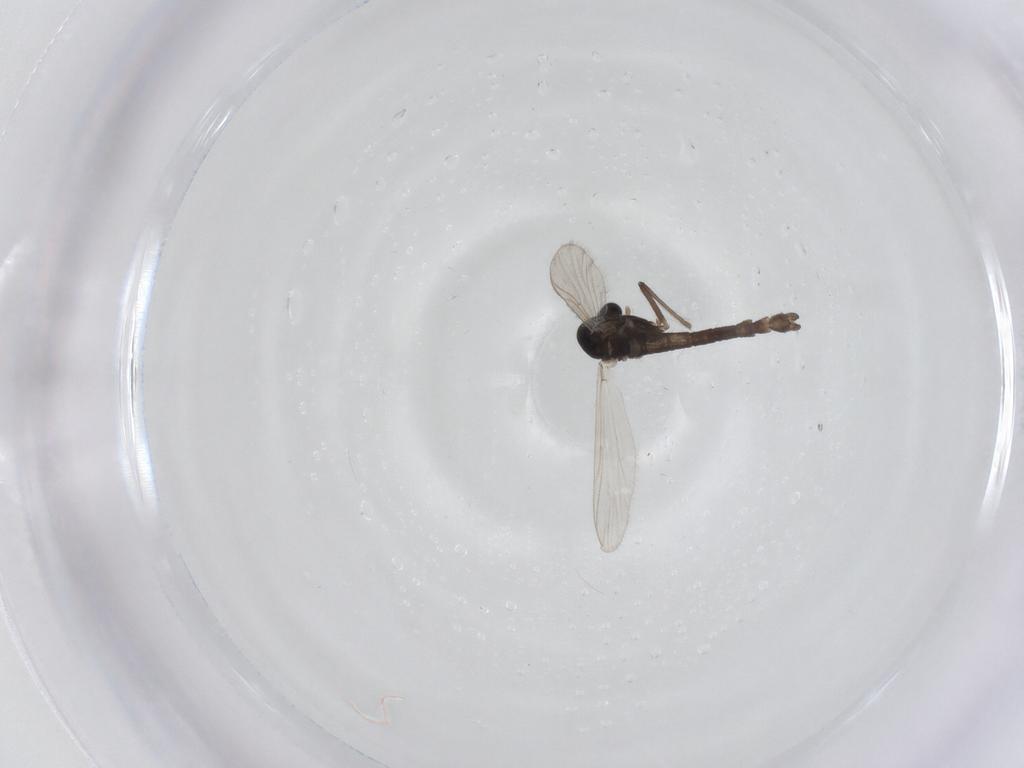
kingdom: Animalia
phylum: Arthropoda
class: Insecta
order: Diptera
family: Chironomidae
